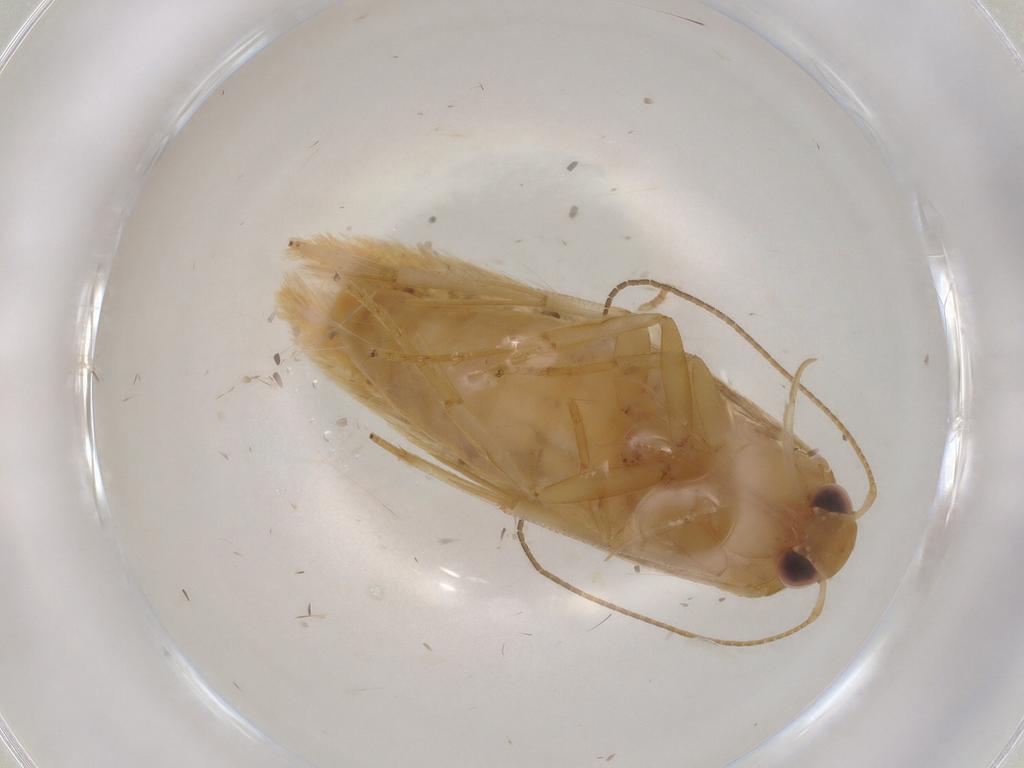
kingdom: Animalia
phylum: Arthropoda
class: Insecta
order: Lepidoptera
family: Stathmopodidae
